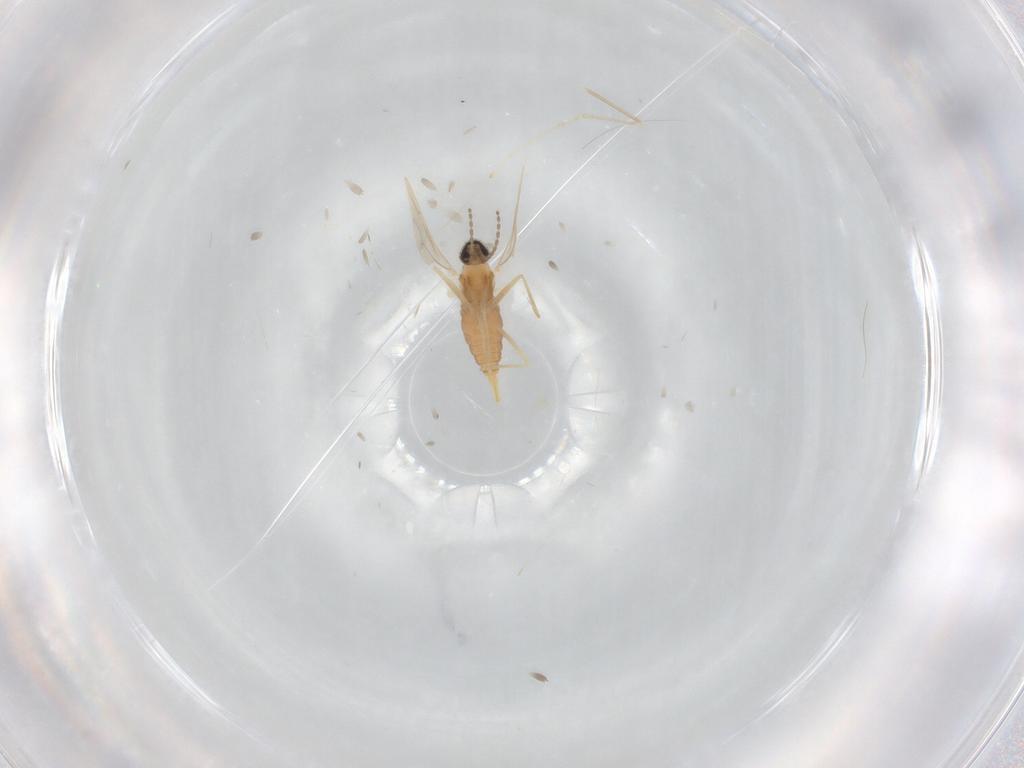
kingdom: Animalia
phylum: Arthropoda
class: Insecta
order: Diptera
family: Cecidomyiidae
